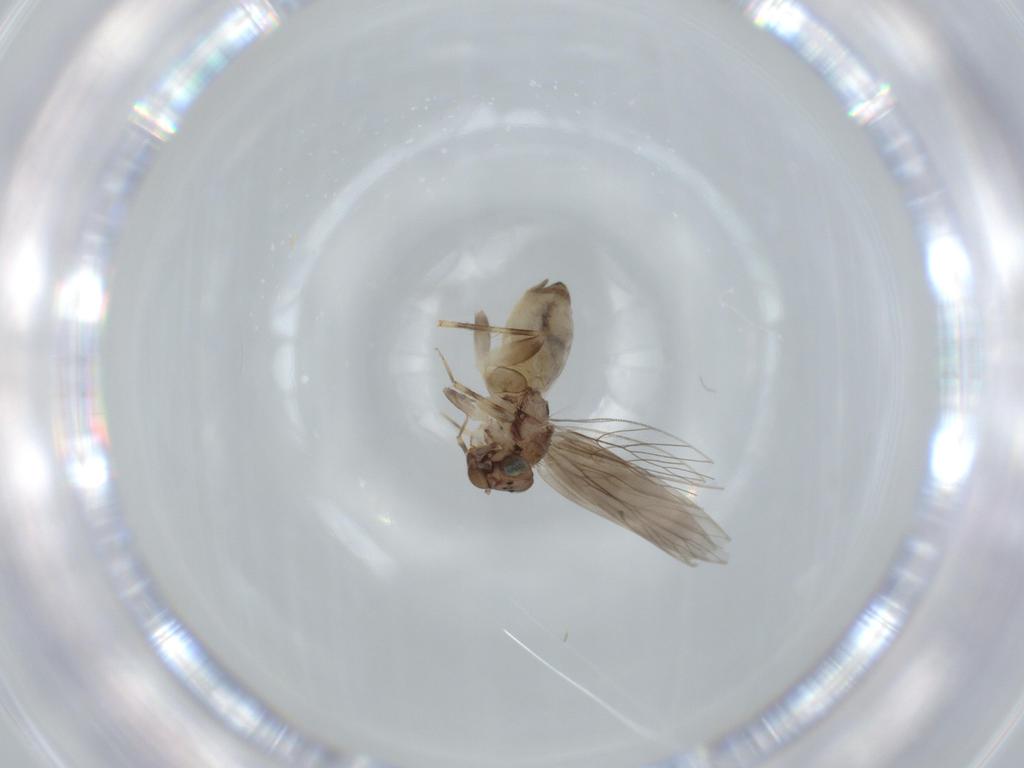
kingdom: Animalia
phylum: Arthropoda
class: Insecta
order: Psocodea
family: Lepidopsocidae
